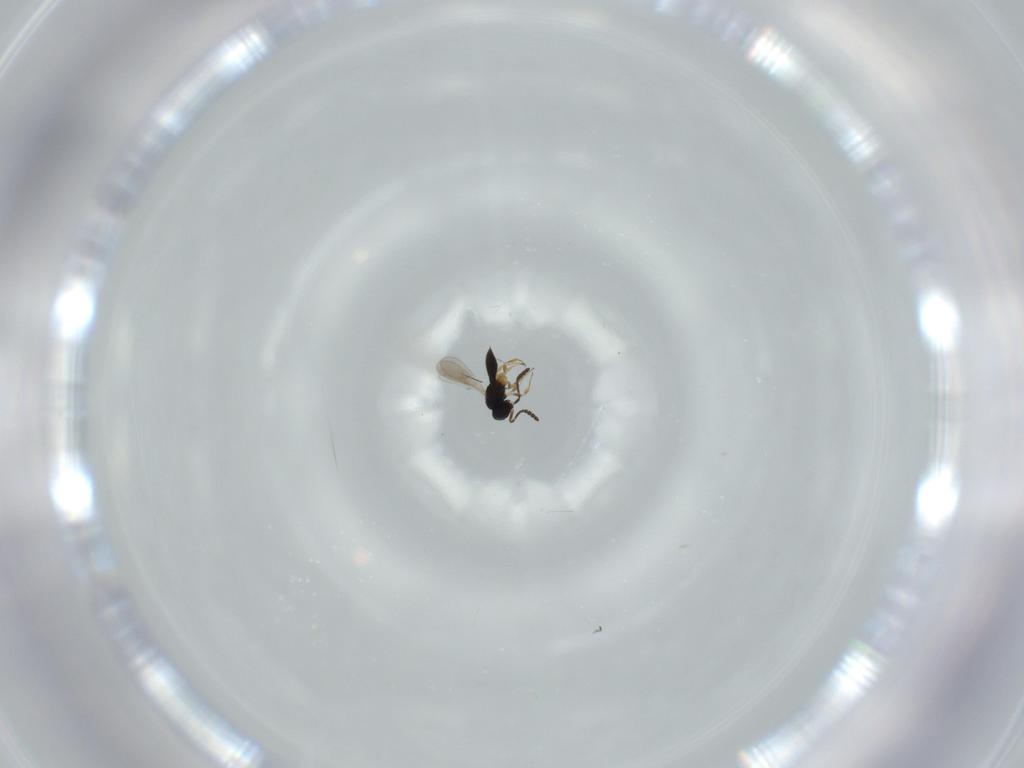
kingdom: Animalia
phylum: Arthropoda
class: Insecta
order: Hymenoptera
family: Scelionidae
